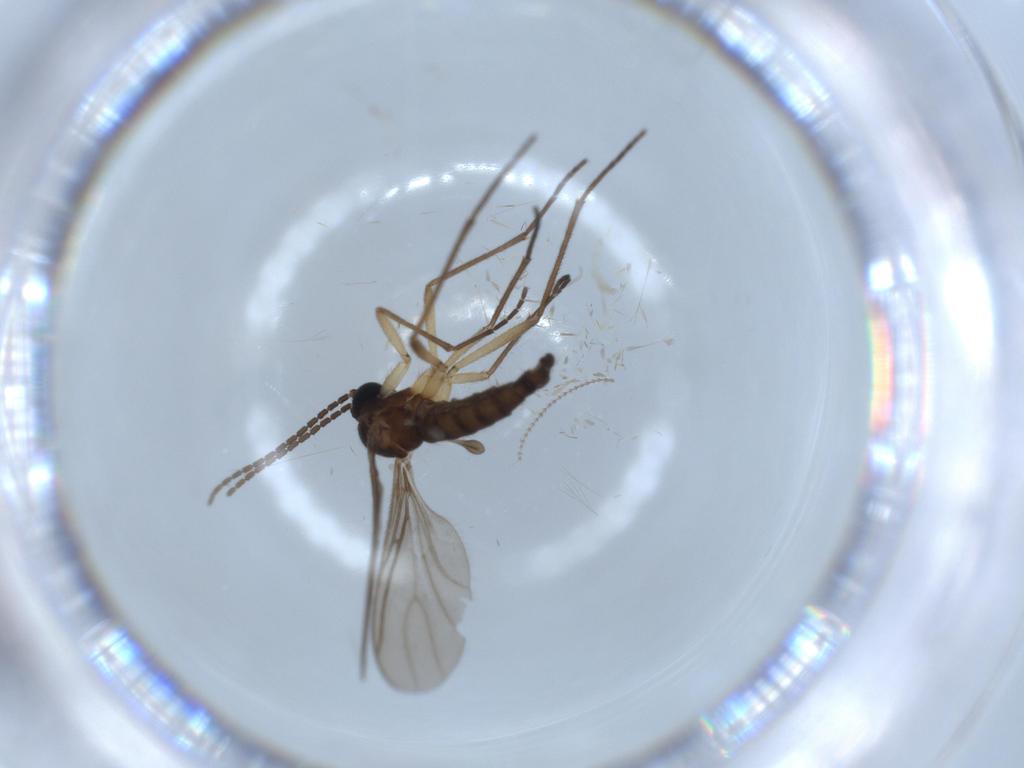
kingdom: Animalia
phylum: Arthropoda
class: Insecta
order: Diptera
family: Sciaridae
